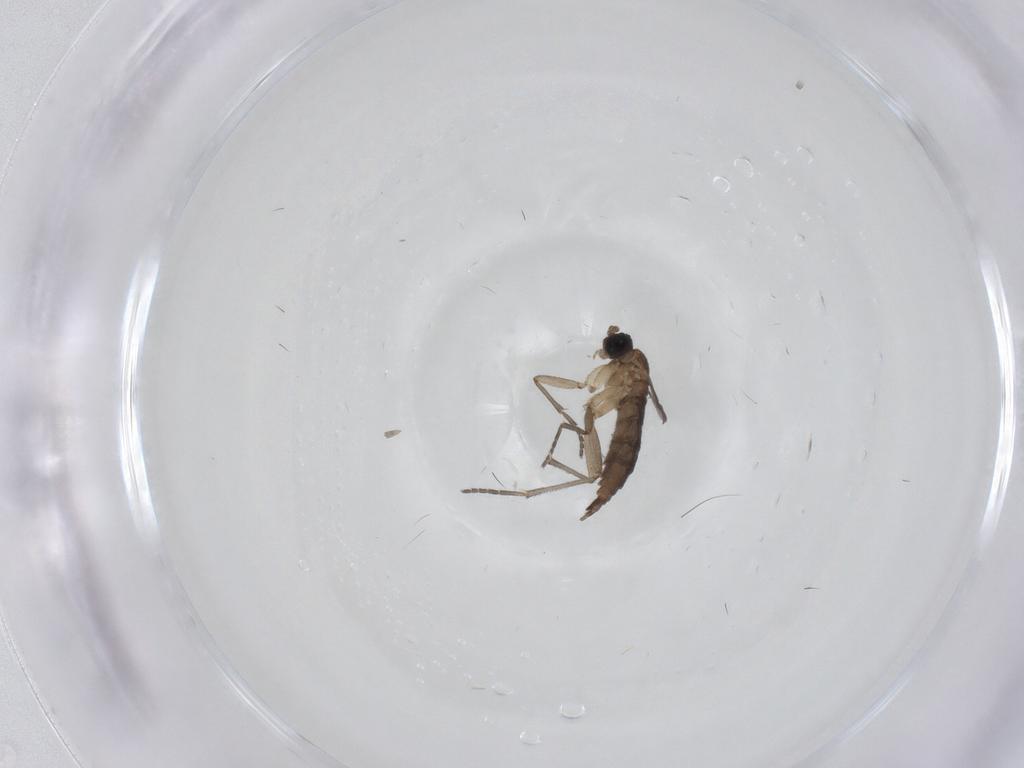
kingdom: Animalia
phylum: Arthropoda
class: Insecta
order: Diptera
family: Sciaridae
